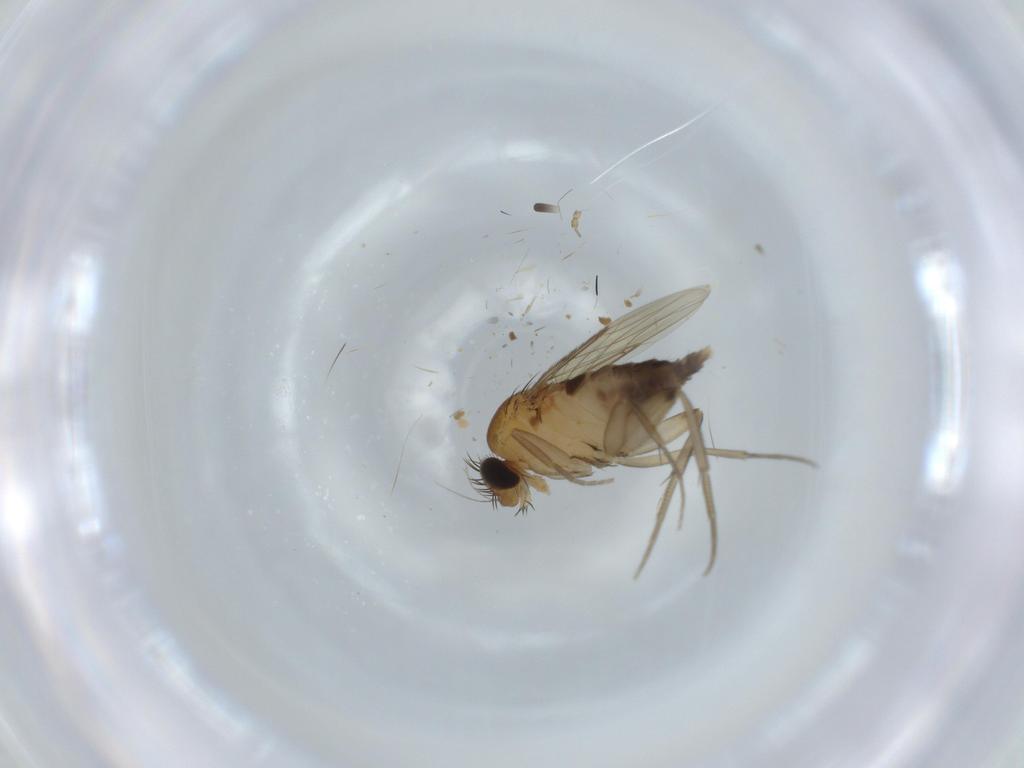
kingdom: Animalia
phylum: Arthropoda
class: Insecta
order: Diptera
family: Phoridae
